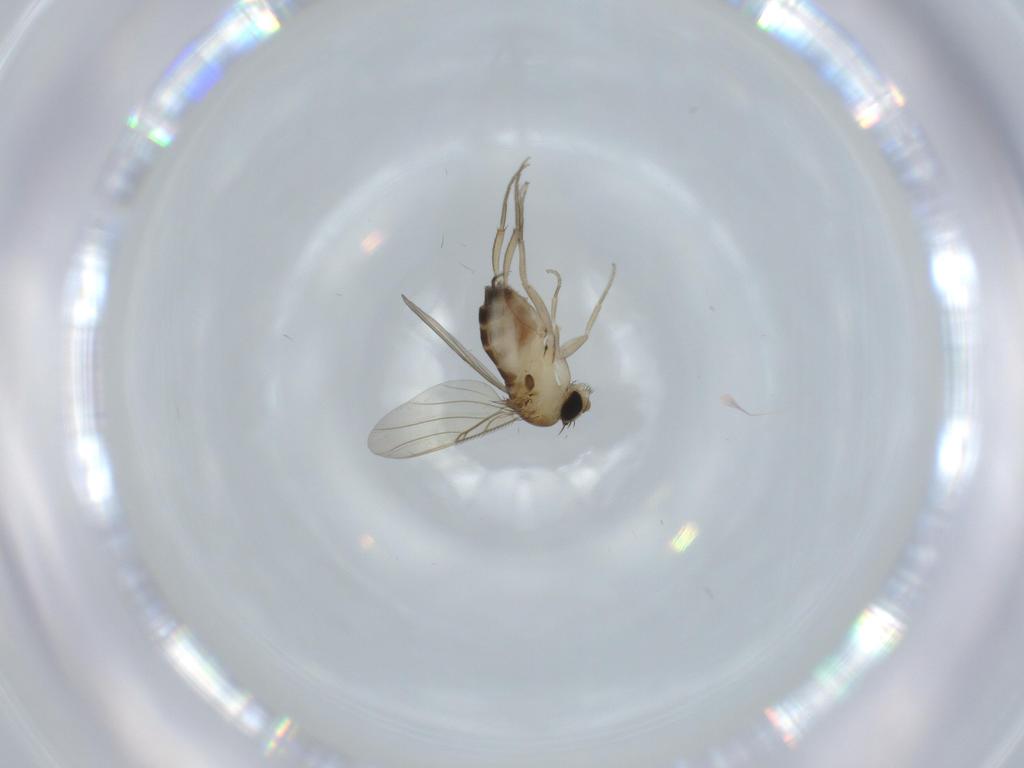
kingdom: Animalia
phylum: Arthropoda
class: Insecta
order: Diptera
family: Phoridae
